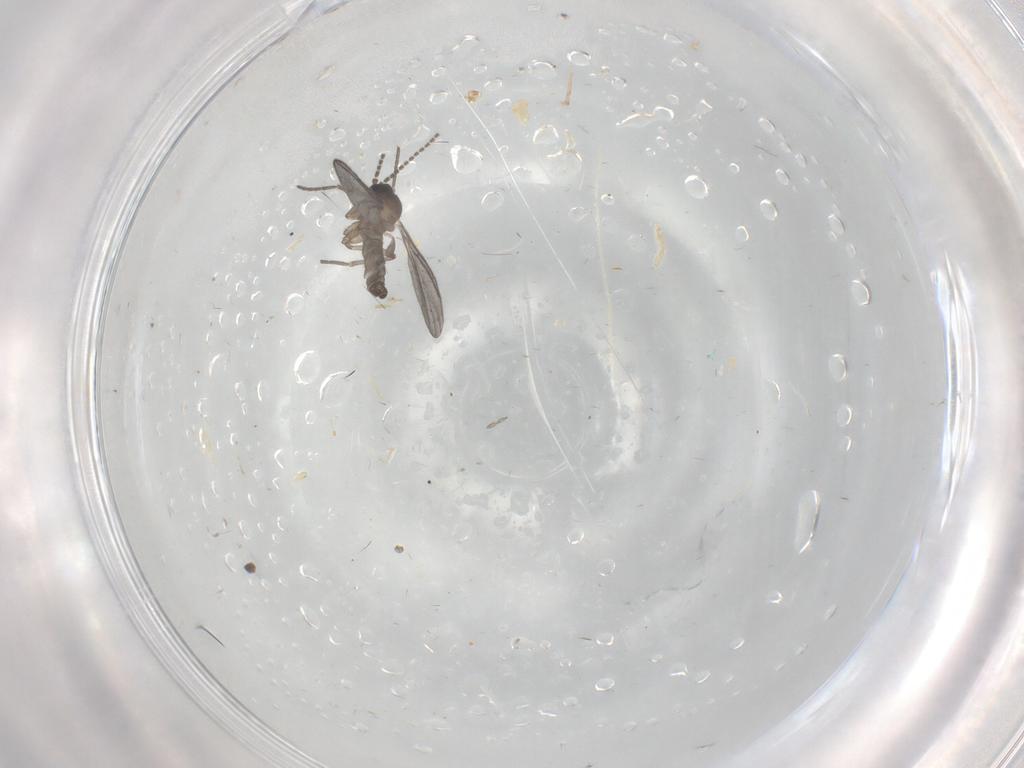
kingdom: Animalia
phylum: Arthropoda
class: Insecta
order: Diptera
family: Sciaridae
